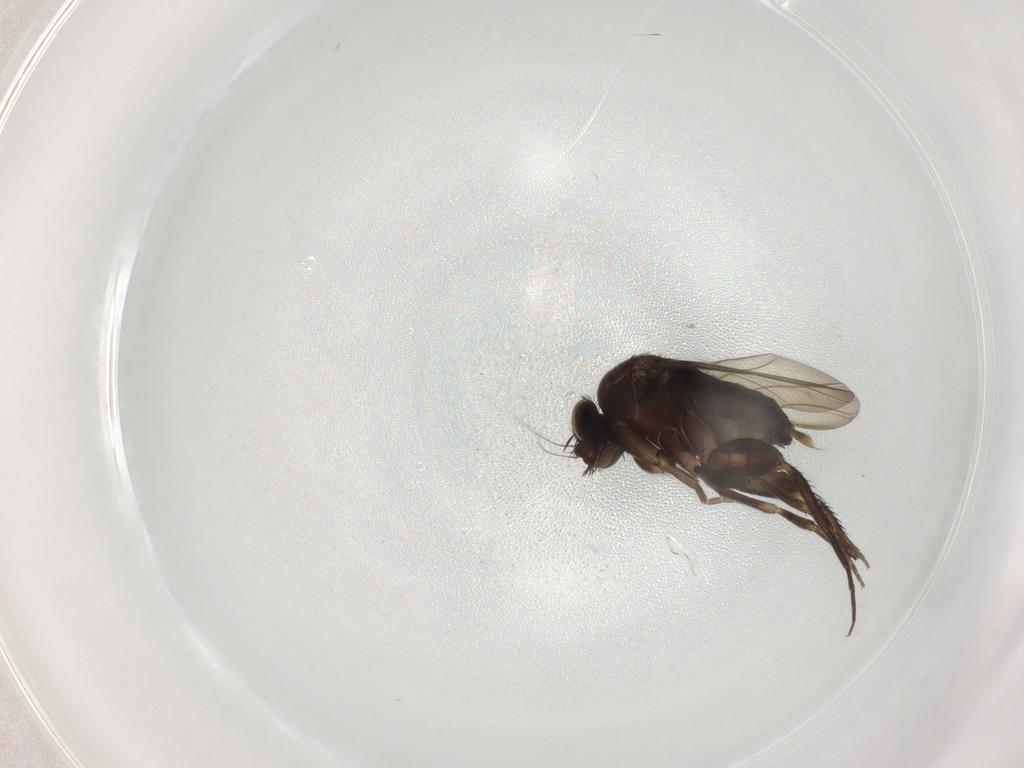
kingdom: Animalia
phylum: Arthropoda
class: Insecta
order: Diptera
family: Phoridae
